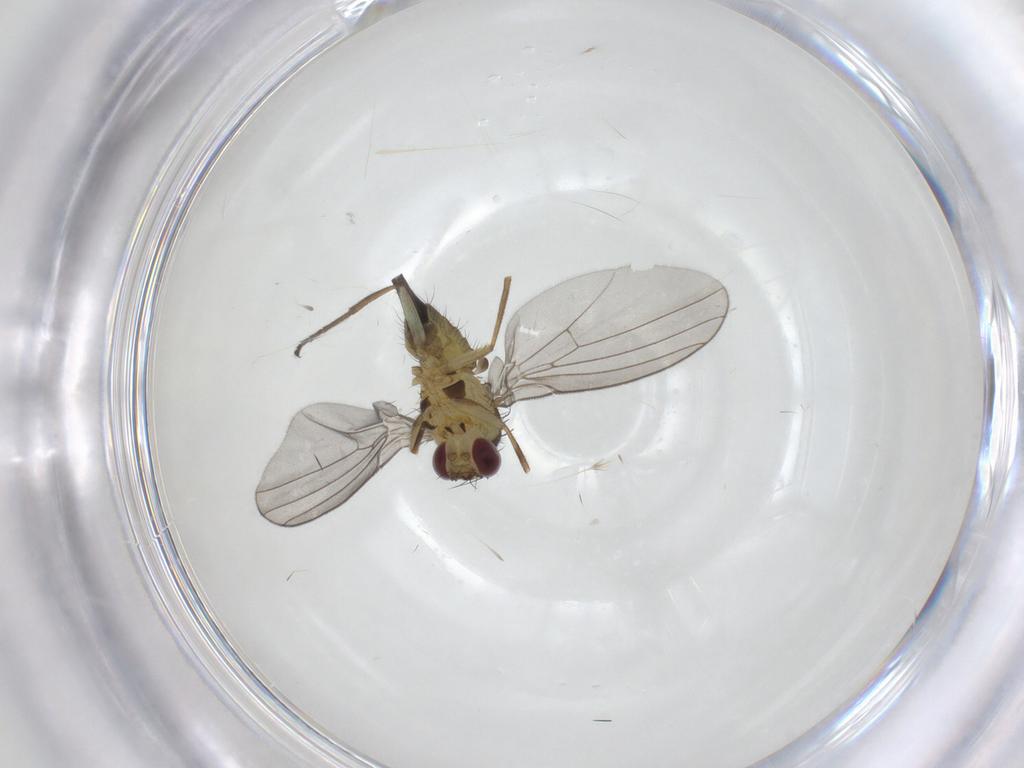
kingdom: Animalia
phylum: Arthropoda
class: Insecta
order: Diptera
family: Agromyzidae
